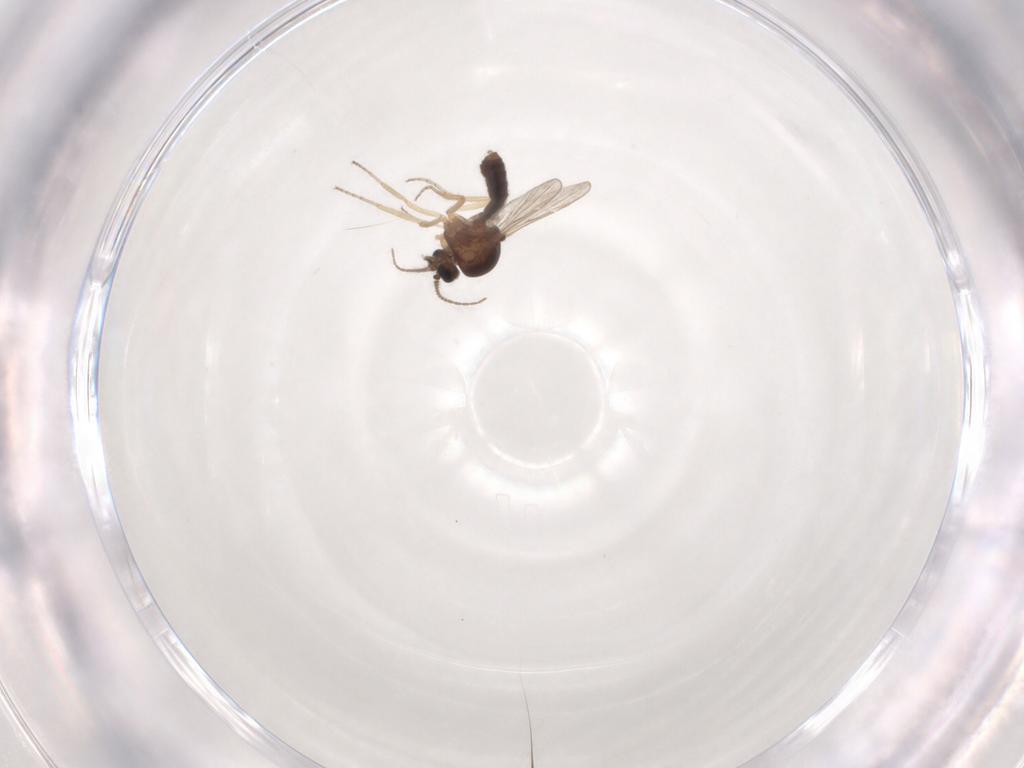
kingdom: Animalia
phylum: Arthropoda
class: Insecta
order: Diptera
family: Ceratopogonidae
